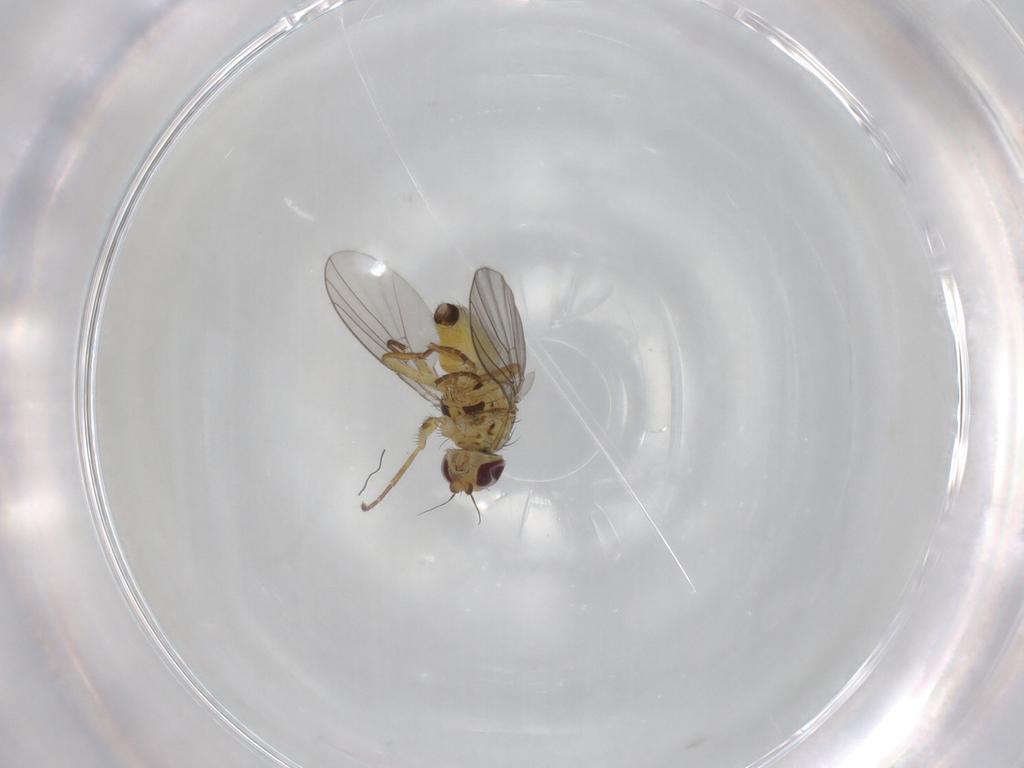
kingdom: Animalia
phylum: Arthropoda
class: Insecta
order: Diptera
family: Agromyzidae
